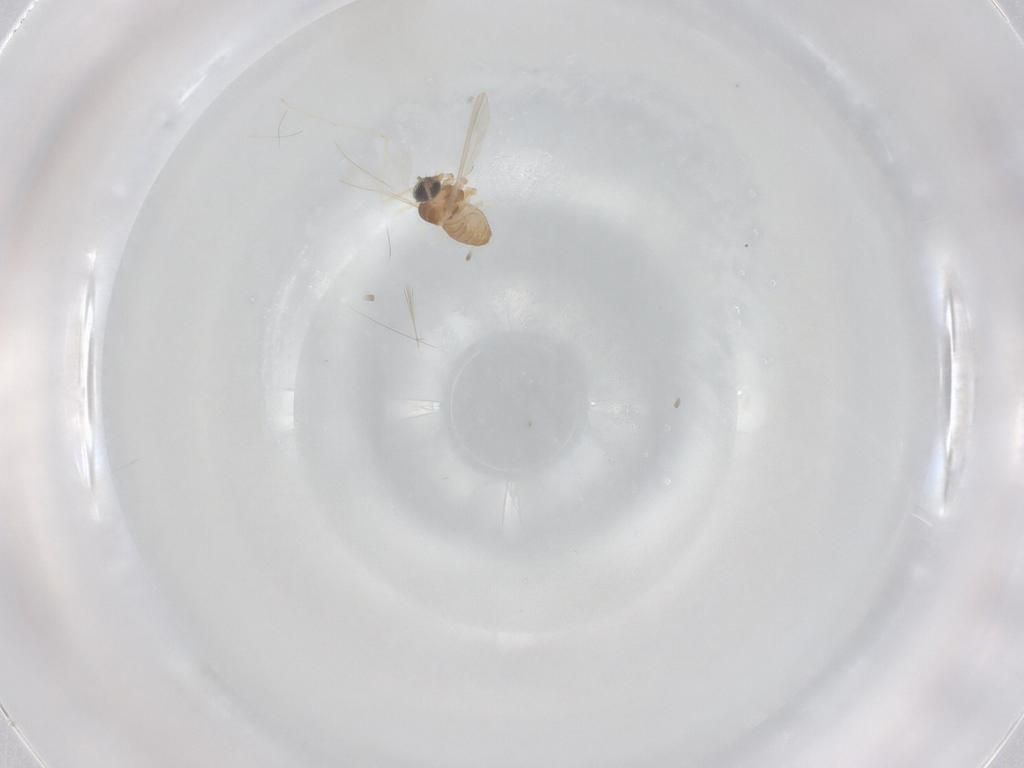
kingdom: Animalia
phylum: Arthropoda
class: Insecta
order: Diptera
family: Cecidomyiidae
